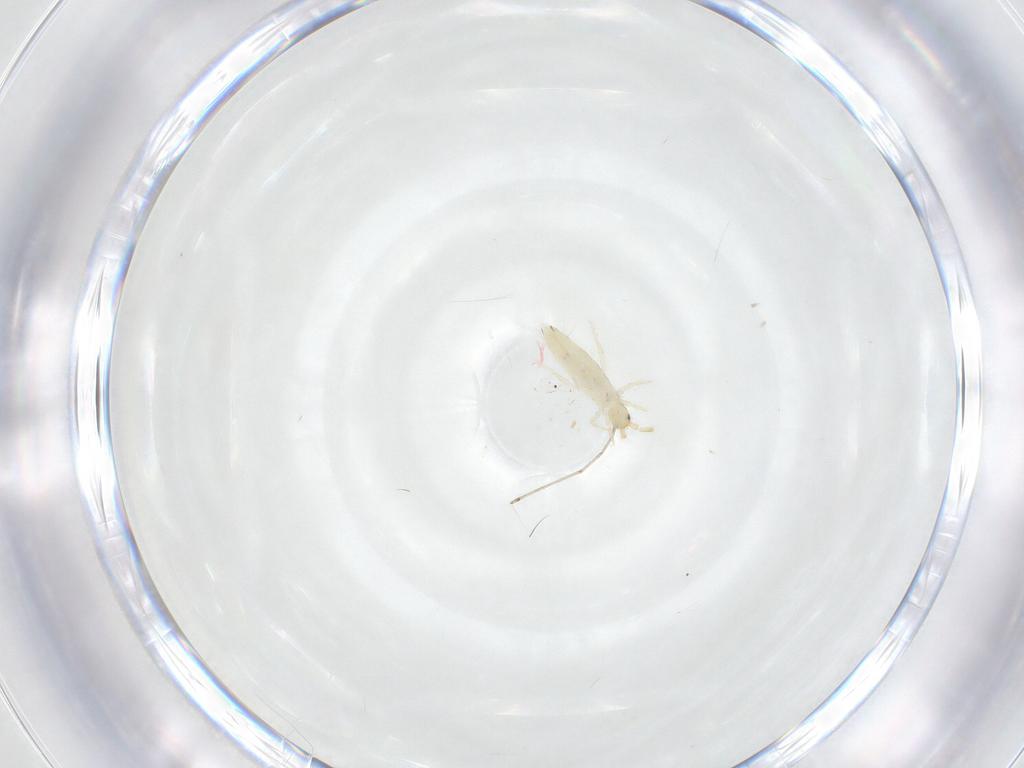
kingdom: Animalia
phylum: Arthropoda
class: Collembola
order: Entomobryomorpha
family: Entomobryidae
